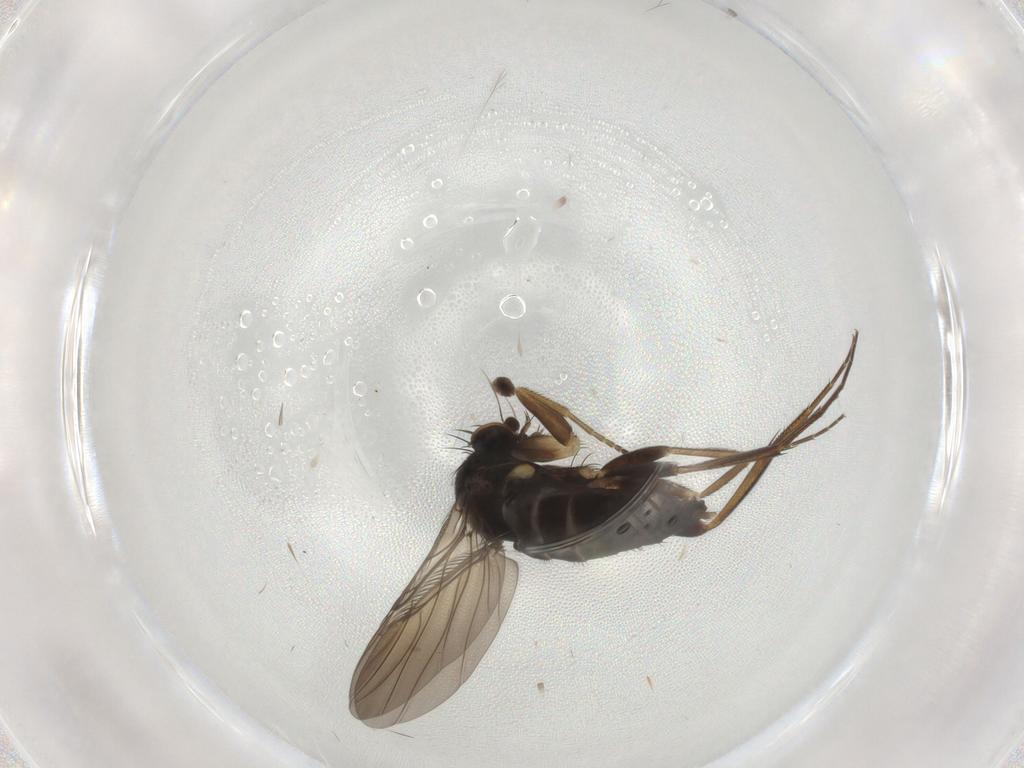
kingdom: Animalia
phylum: Arthropoda
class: Insecta
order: Diptera
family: Phoridae
